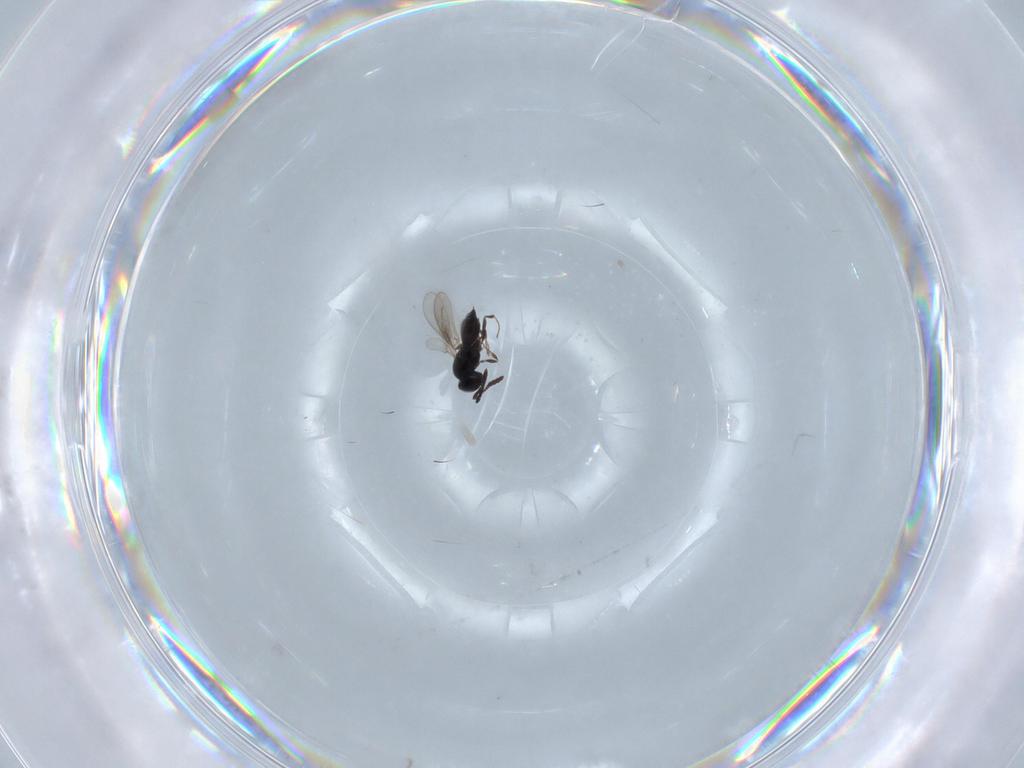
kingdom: Animalia
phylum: Arthropoda
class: Insecta
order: Hymenoptera
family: Scelionidae
